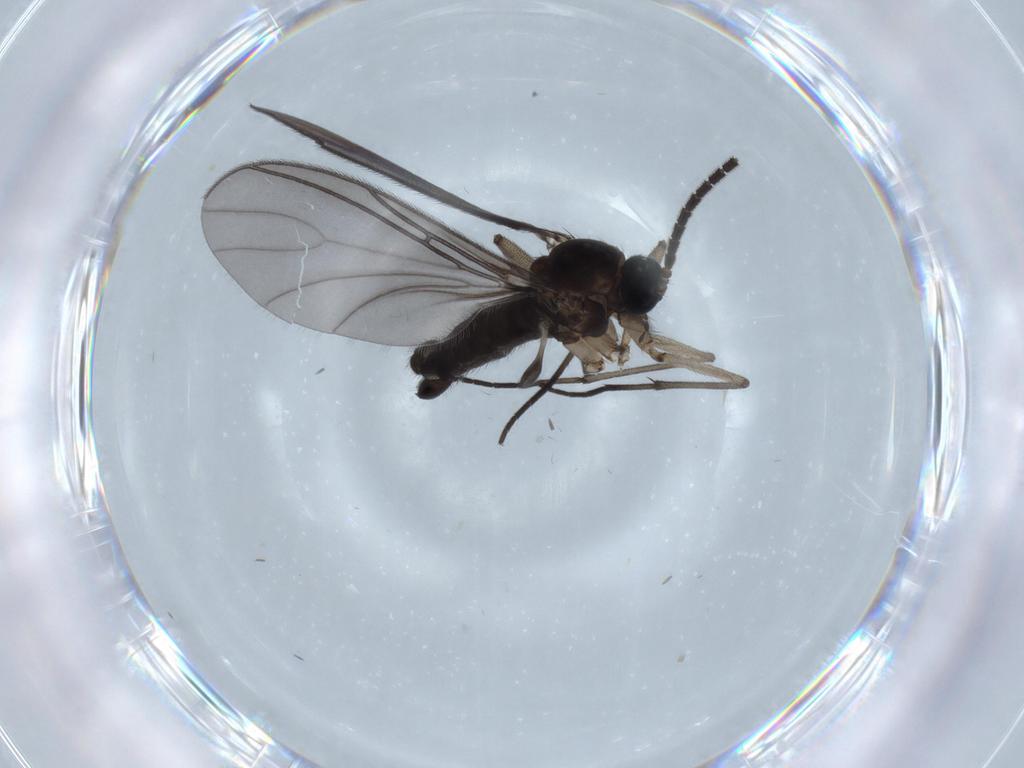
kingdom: Animalia
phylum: Arthropoda
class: Insecta
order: Diptera
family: Sciaridae
